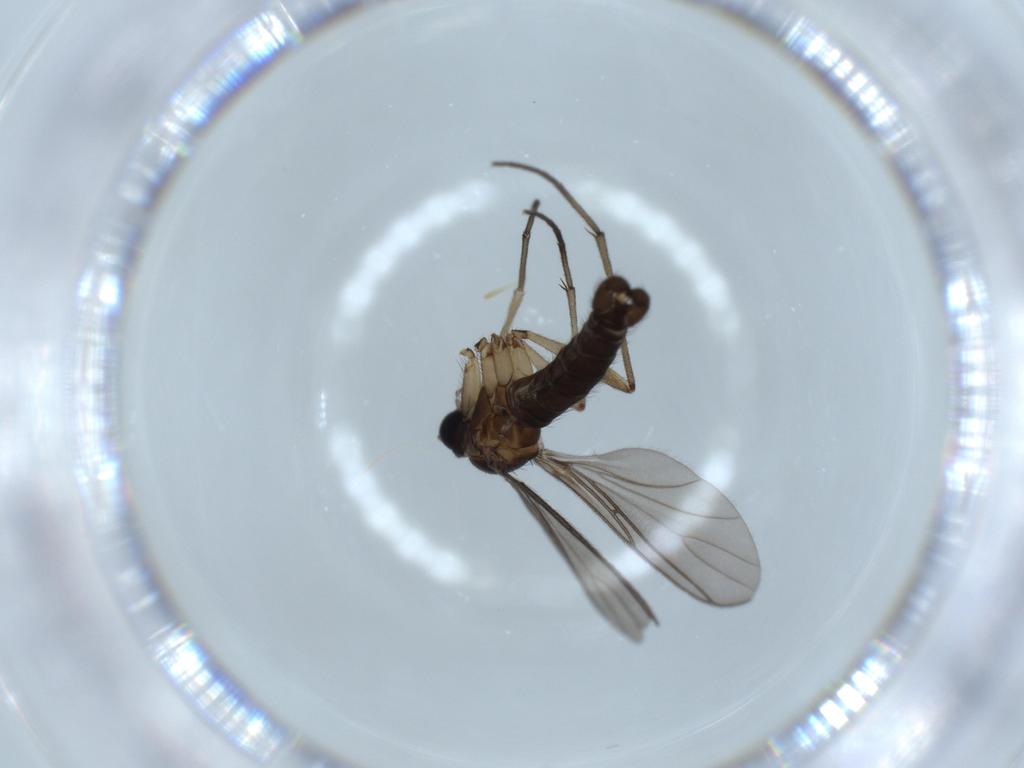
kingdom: Animalia
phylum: Arthropoda
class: Insecta
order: Diptera
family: Sciaridae
